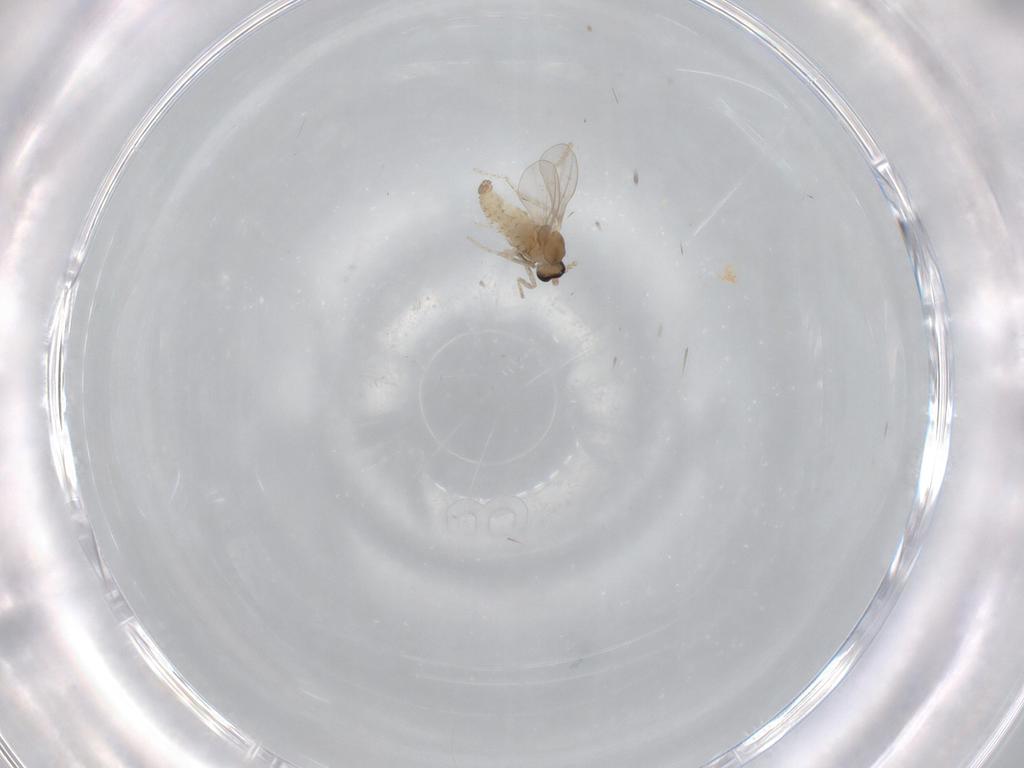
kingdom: Animalia
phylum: Arthropoda
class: Insecta
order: Diptera
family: Cecidomyiidae
